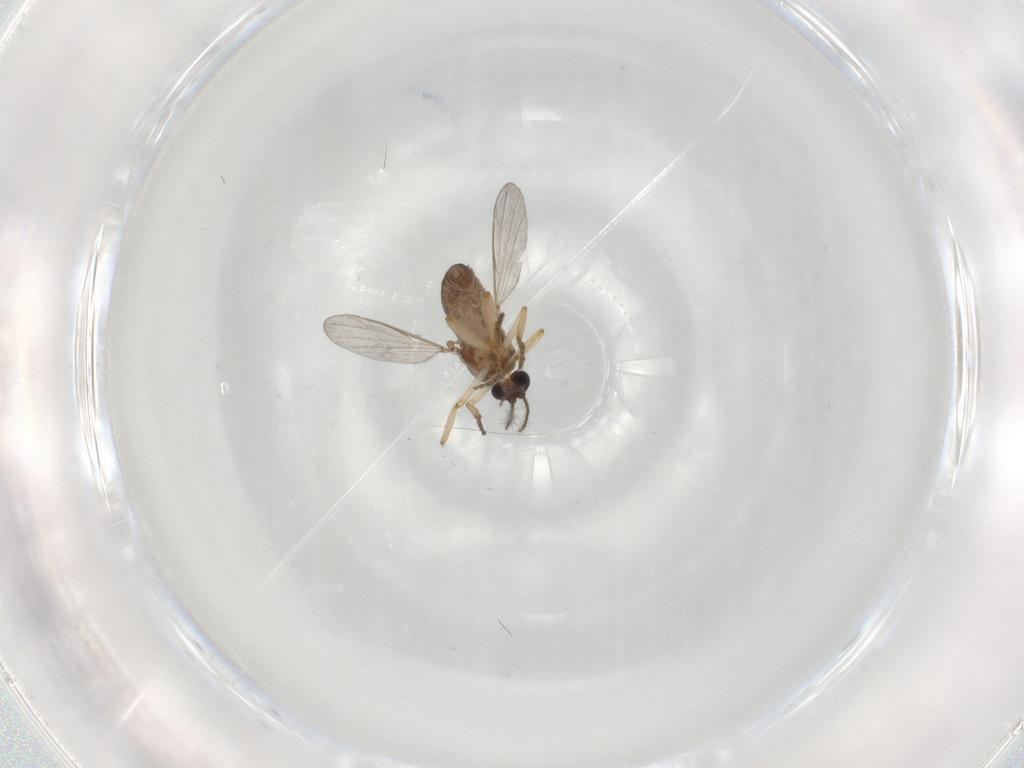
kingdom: Animalia
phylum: Arthropoda
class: Insecta
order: Diptera
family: Ceratopogonidae
